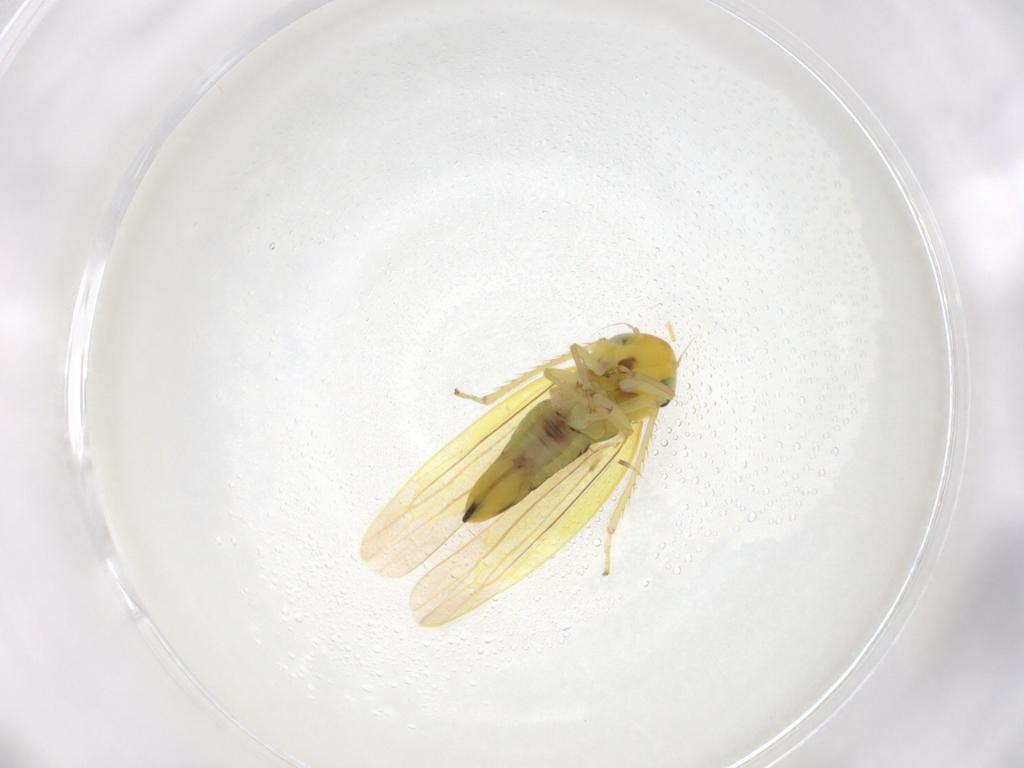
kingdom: Animalia
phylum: Arthropoda
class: Insecta
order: Hemiptera
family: Cicadellidae
